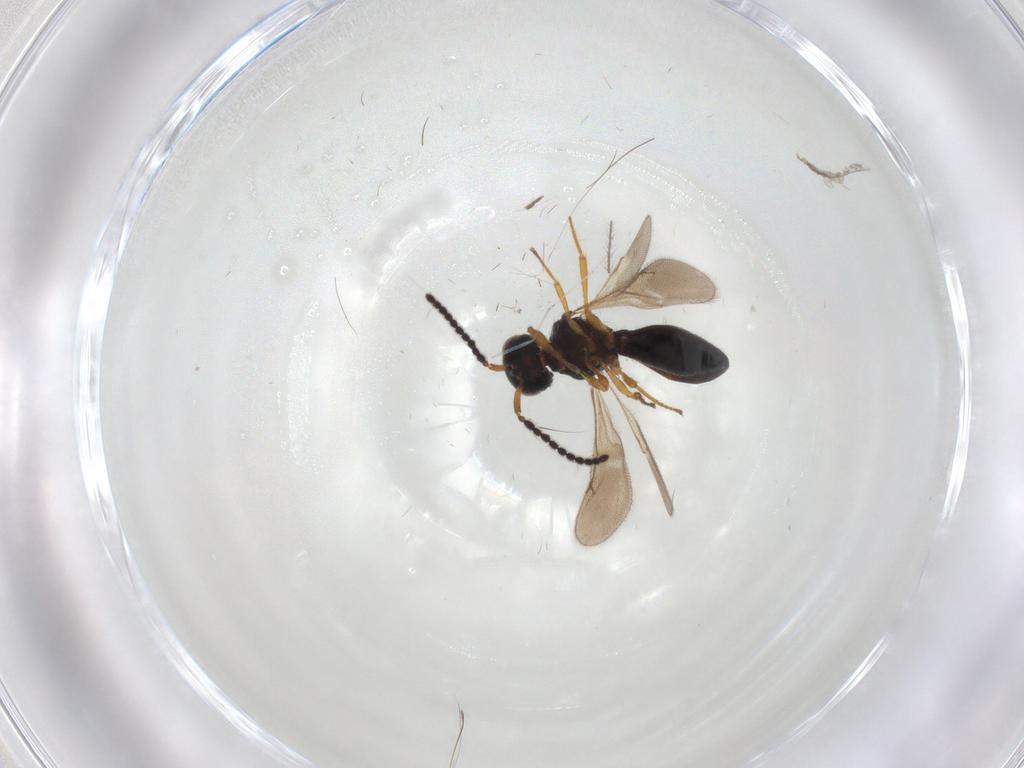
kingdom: Animalia
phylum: Arthropoda
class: Insecta
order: Hymenoptera
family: Scelionidae
